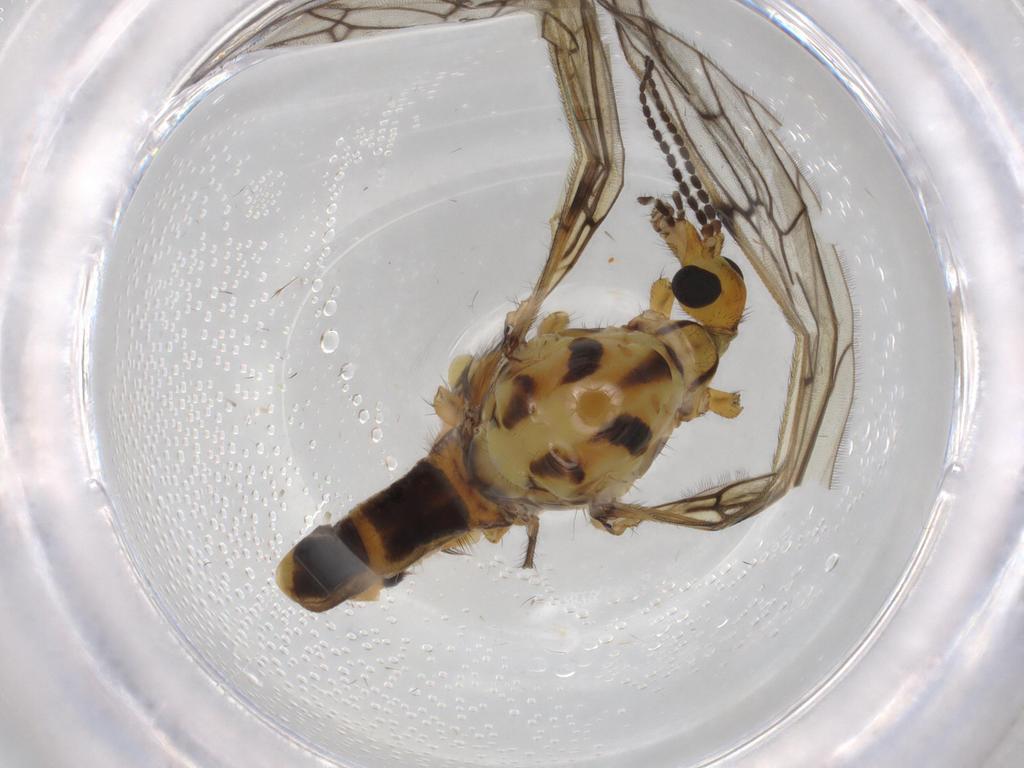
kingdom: Animalia
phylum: Arthropoda
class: Insecta
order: Diptera
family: Limoniidae
